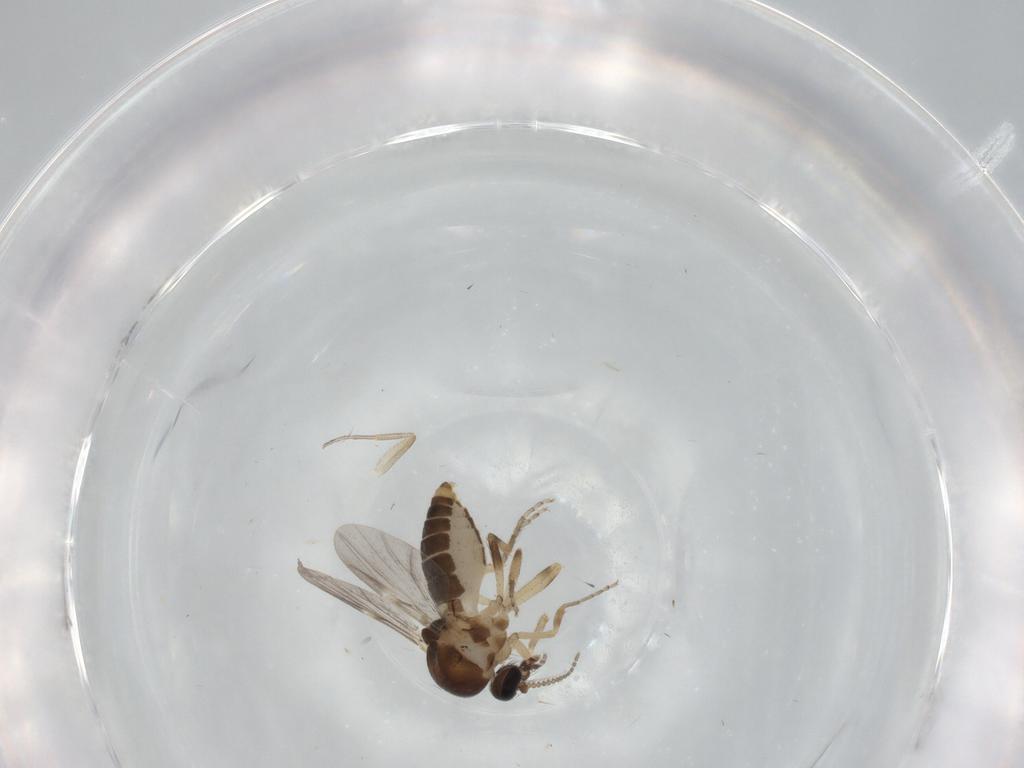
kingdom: Animalia
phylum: Arthropoda
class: Insecta
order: Diptera
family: Ceratopogonidae
